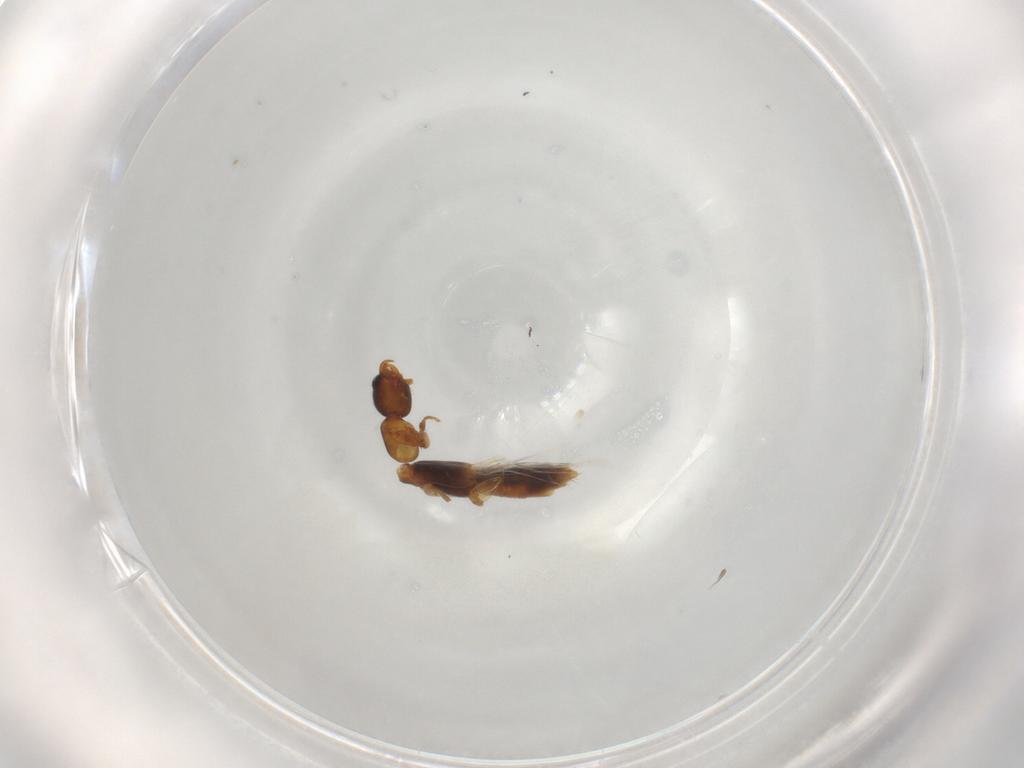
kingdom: Animalia
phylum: Arthropoda
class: Insecta
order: Coleoptera
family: Staphylinidae
